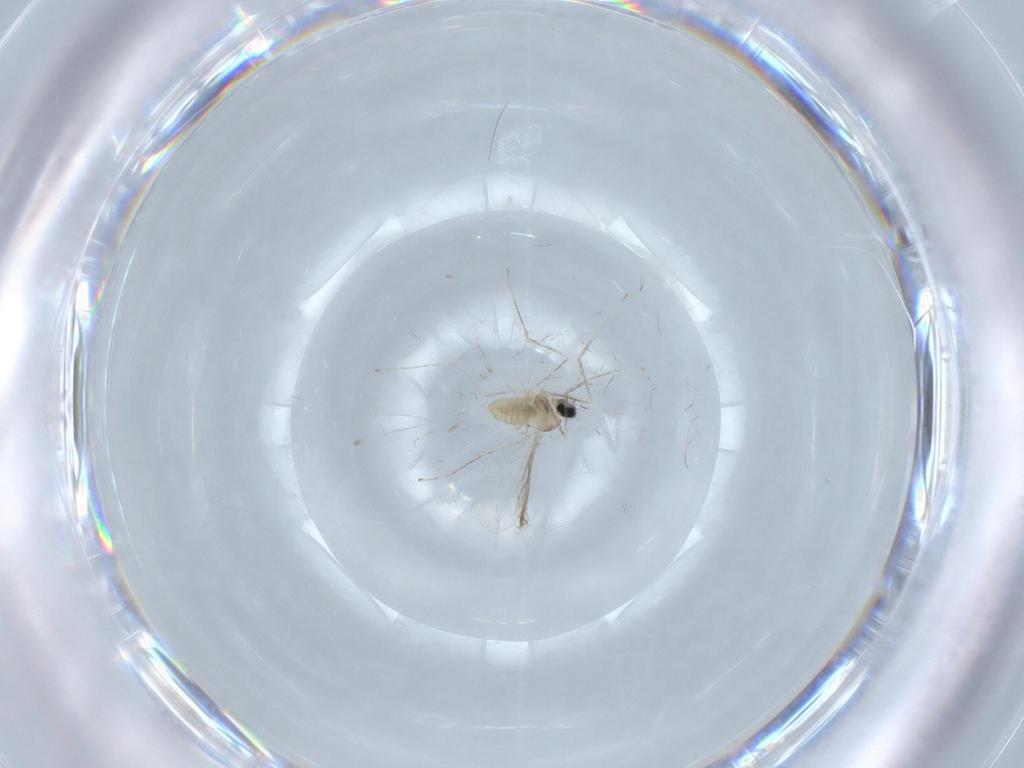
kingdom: Animalia
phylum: Arthropoda
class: Insecta
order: Diptera
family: Cecidomyiidae
